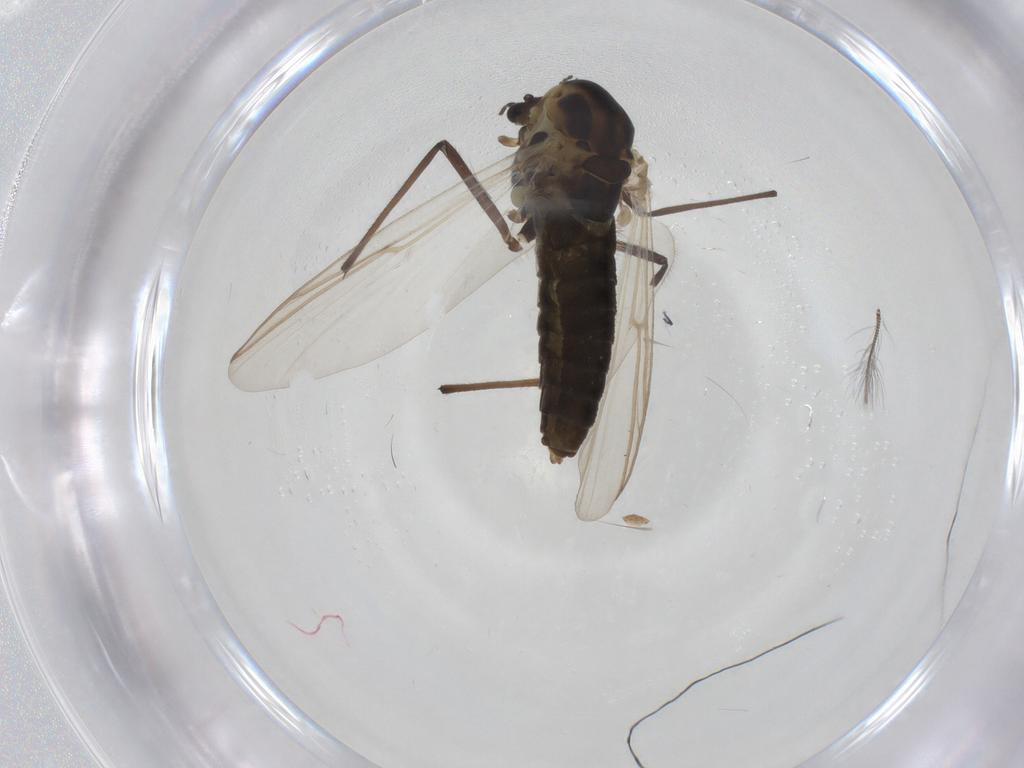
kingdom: Animalia
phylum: Arthropoda
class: Insecta
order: Diptera
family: Chironomidae
